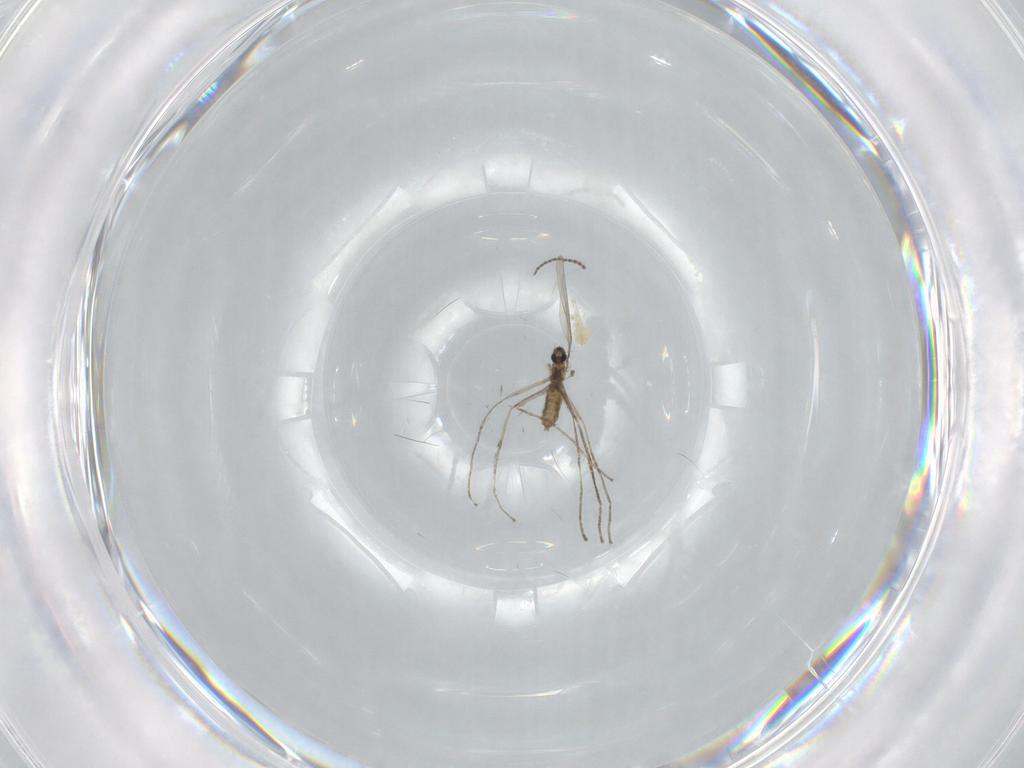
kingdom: Animalia
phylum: Arthropoda
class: Insecta
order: Diptera
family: Cecidomyiidae
